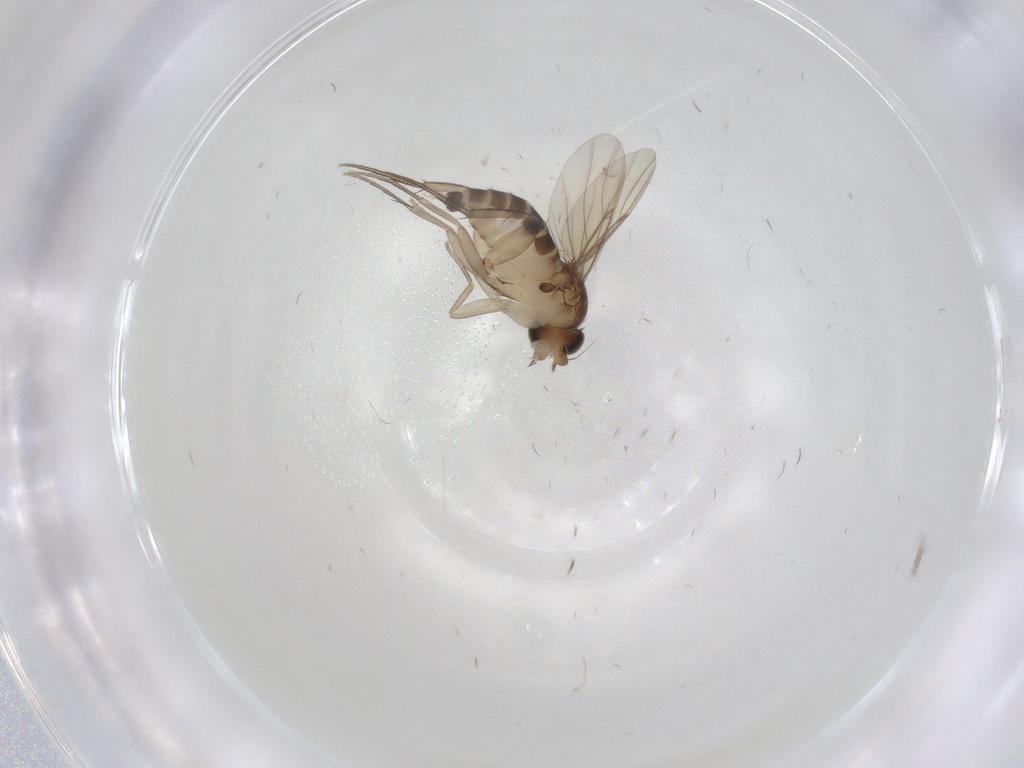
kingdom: Animalia
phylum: Arthropoda
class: Insecta
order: Diptera
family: Psychodidae
